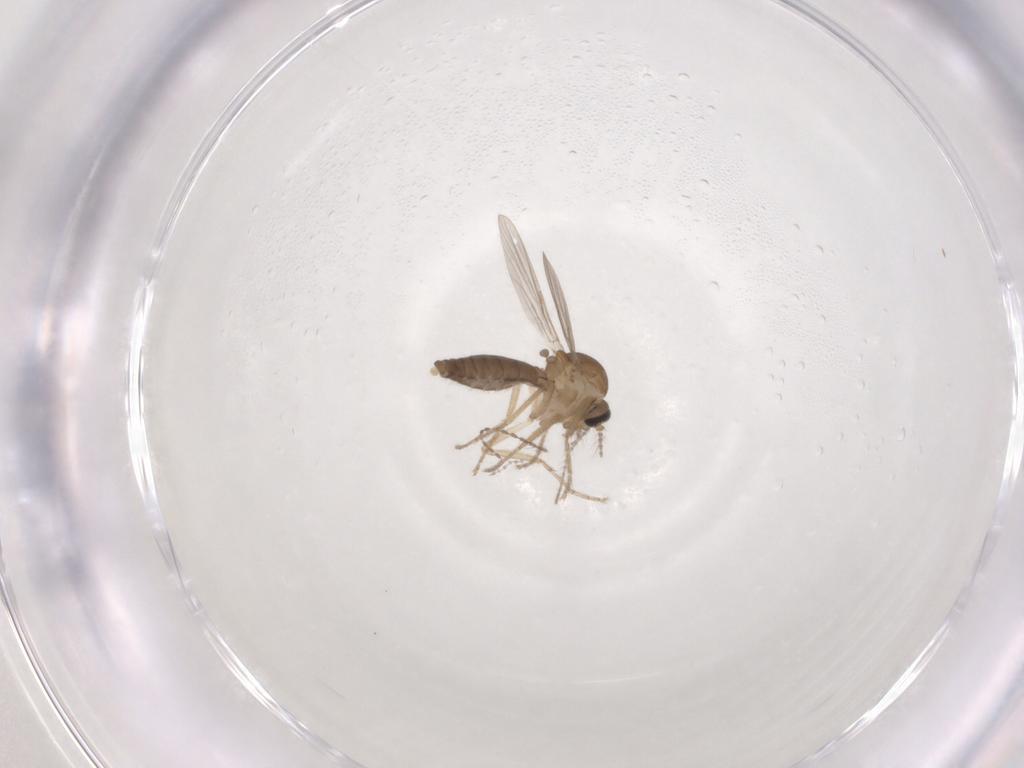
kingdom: Animalia
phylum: Arthropoda
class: Insecta
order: Diptera
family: Ceratopogonidae
